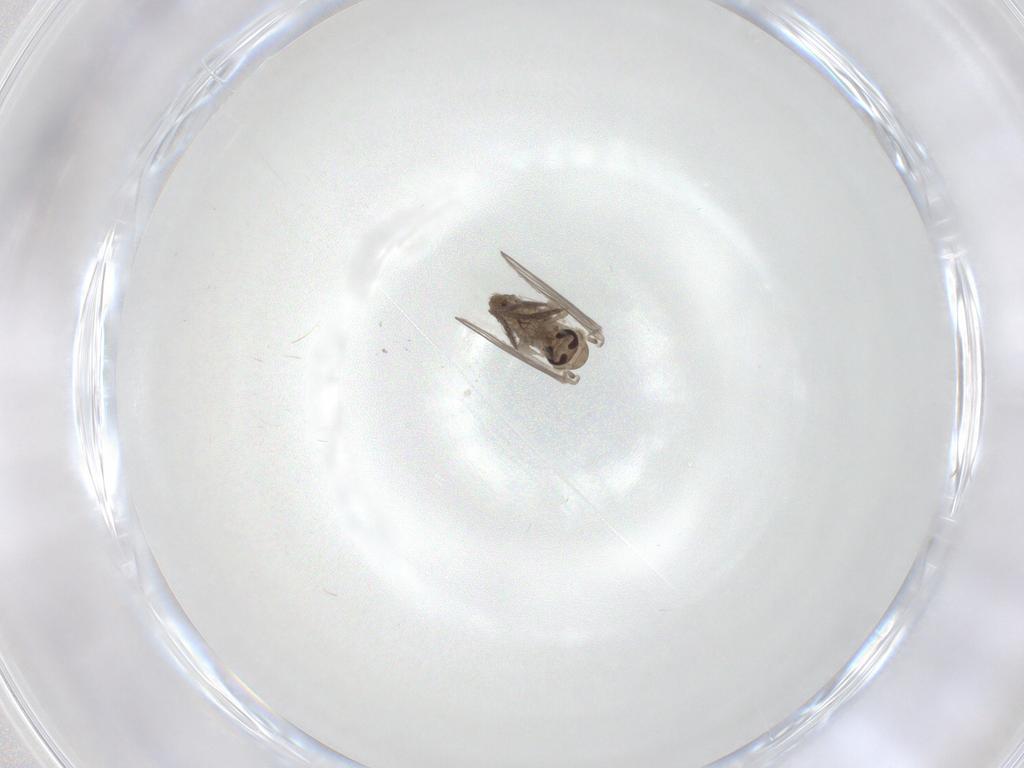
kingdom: Animalia
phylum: Arthropoda
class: Insecta
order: Diptera
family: Psychodidae
